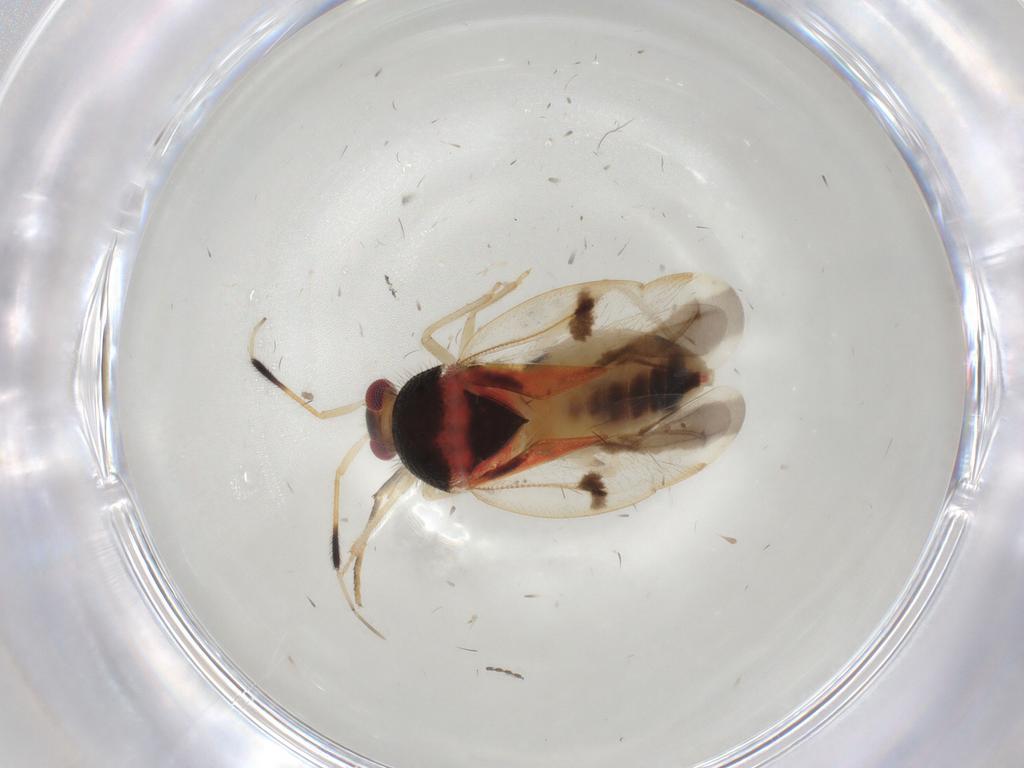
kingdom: Animalia
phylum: Arthropoda
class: Insecta
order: Hemiptera
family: Miridae
